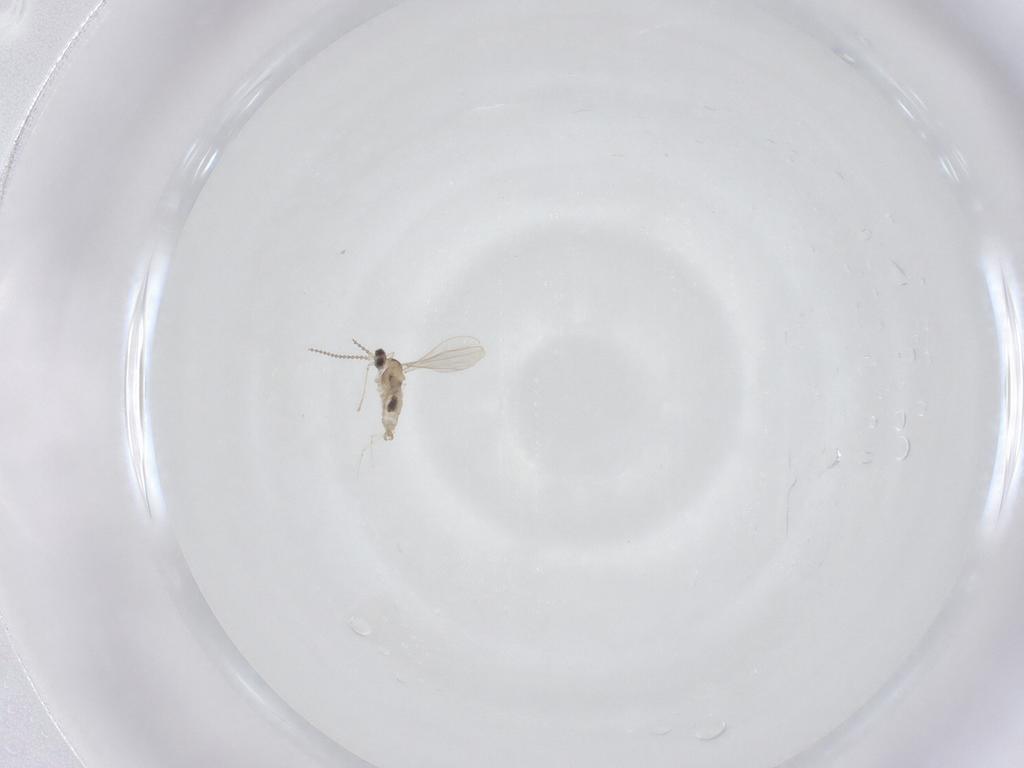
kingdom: Animalia
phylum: Arthropoda
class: Insecta
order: Diptera
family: Cecidomyiidae
